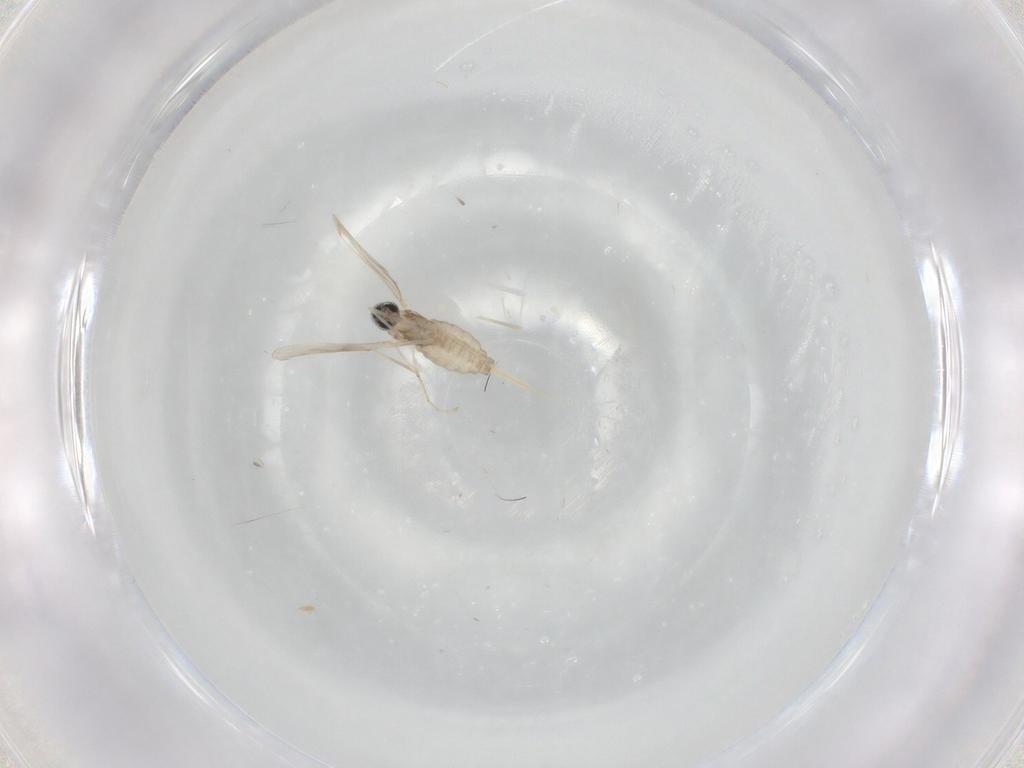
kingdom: Animalia
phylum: Arthropoda
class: Insecta
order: Diptera
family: Cecidomyiidae
